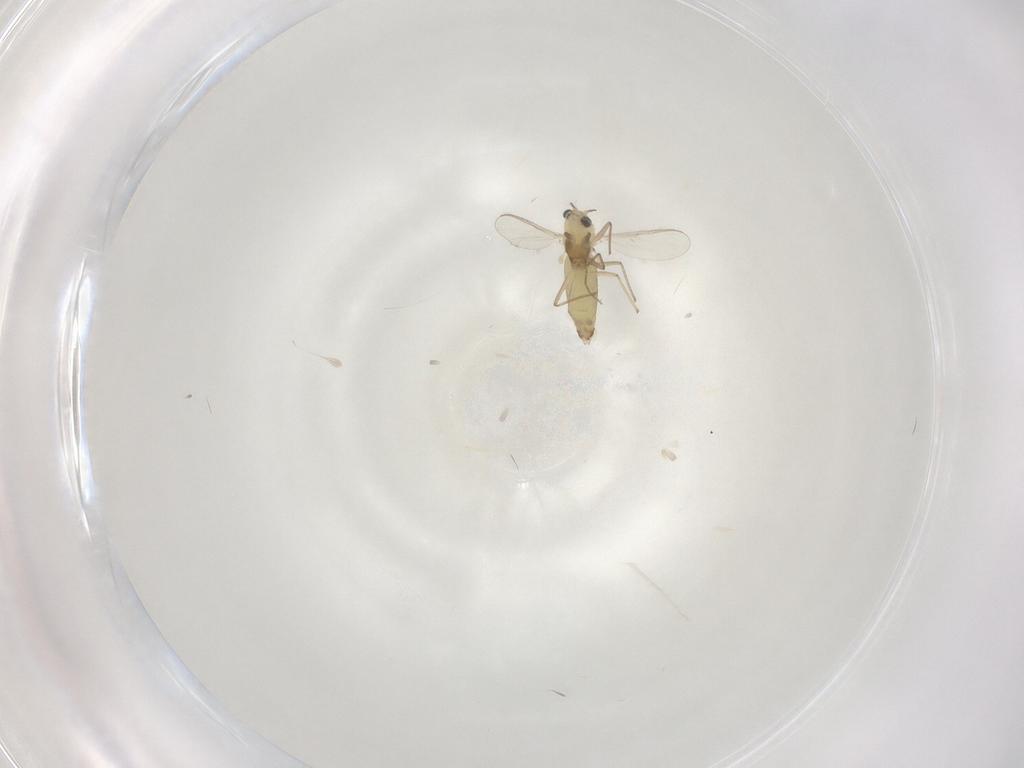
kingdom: Animalia
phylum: Arthropoda
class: Insecta
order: Diptera
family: Chironomidae
